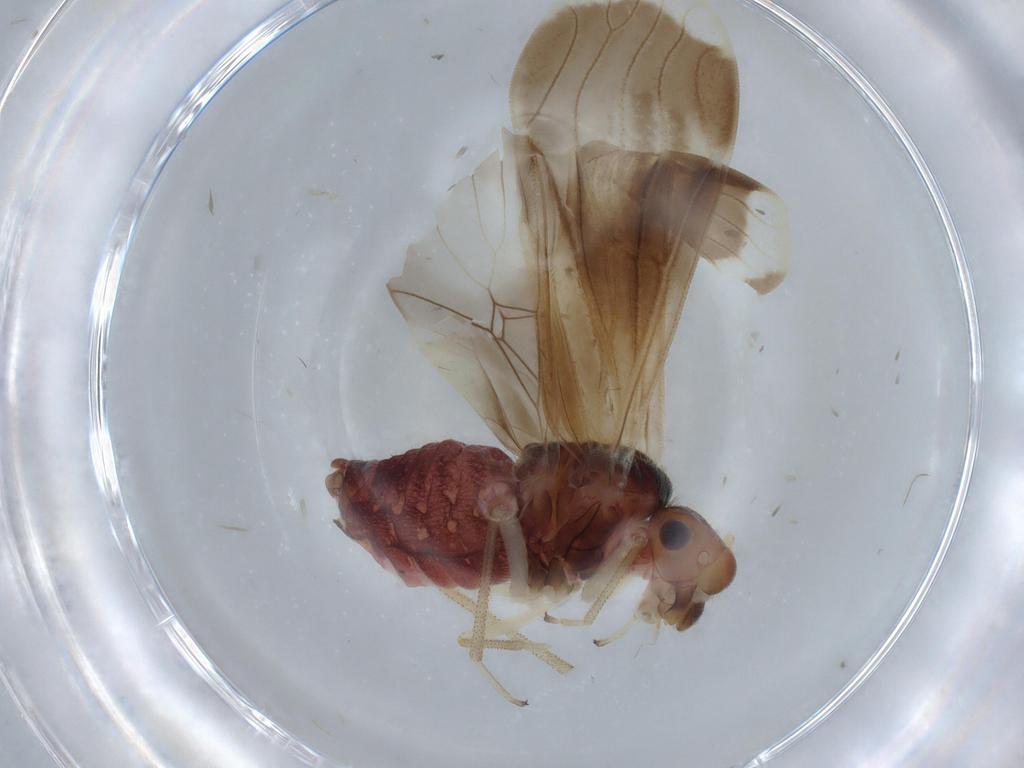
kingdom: Animalia
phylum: Arthropoda
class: Insecta
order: Psocodea
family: Amphipsocidae
